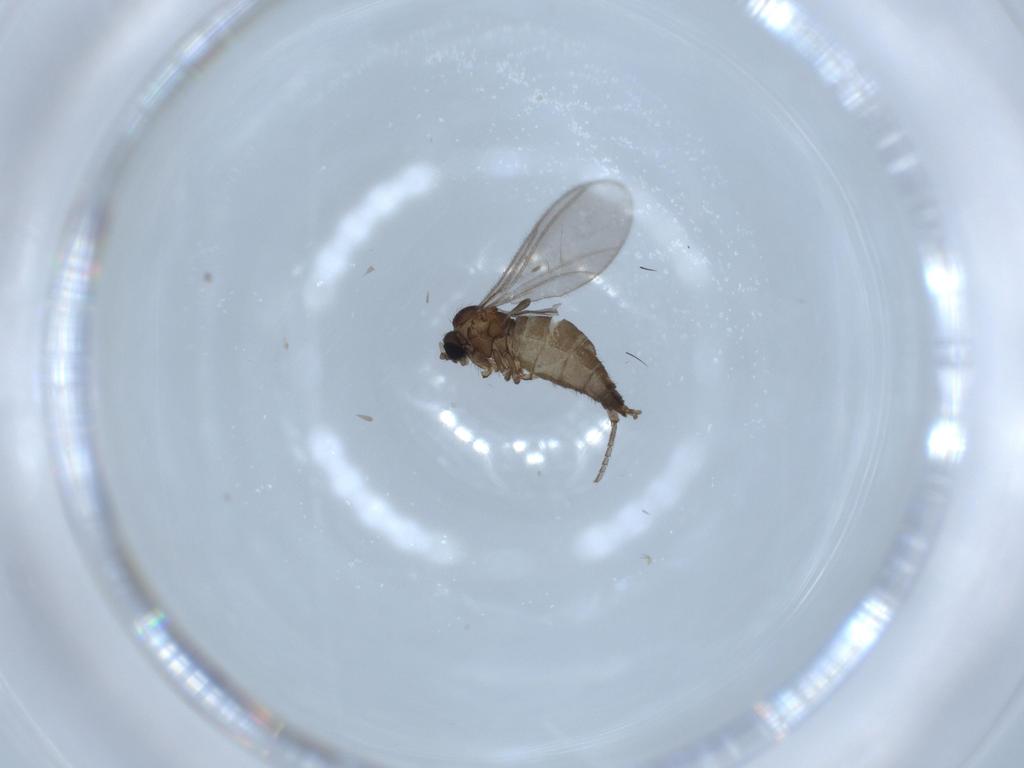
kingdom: Animalia
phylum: Arthropoda
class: Insecta
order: Diptera
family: Sciaridae
